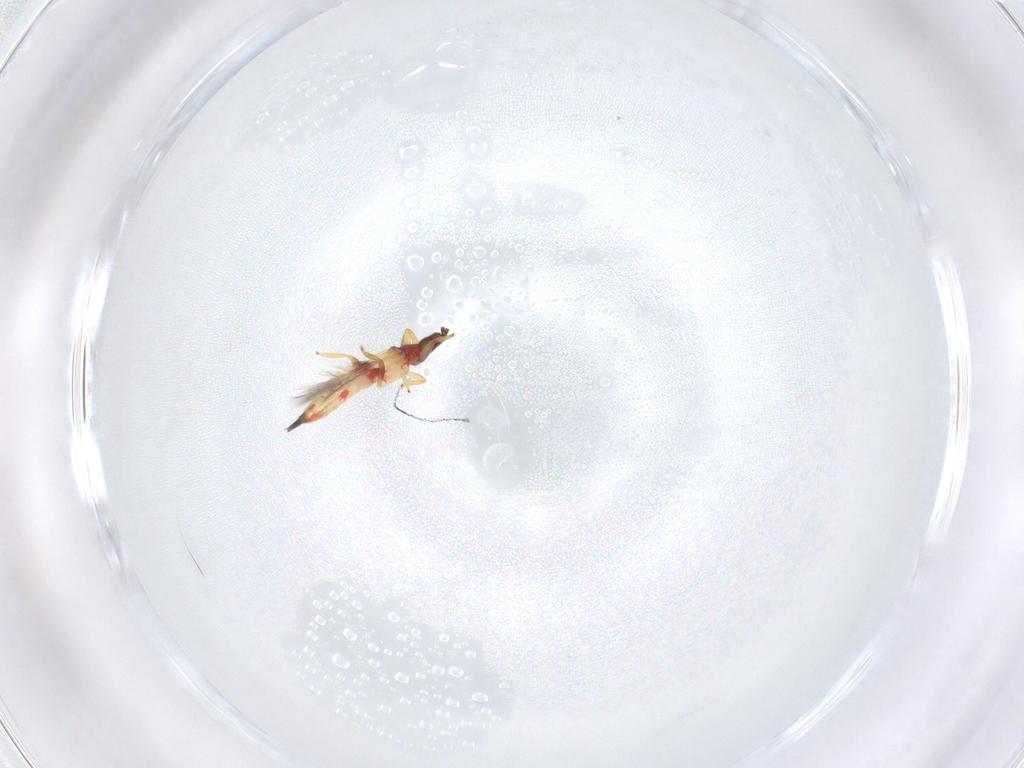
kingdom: Animalia
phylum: Arthropoda
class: Insecta
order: Thysanoptera
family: Phlaeothripidae
